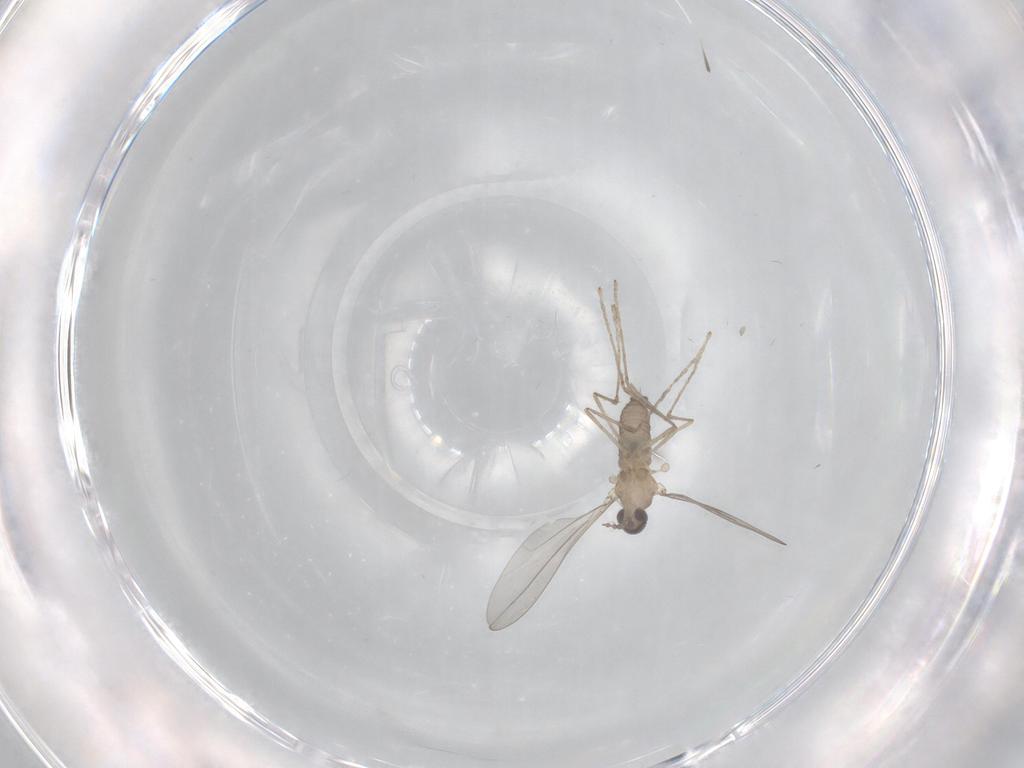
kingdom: Animalia
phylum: Arthropoda
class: Insecta
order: Diptera
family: Cecidomyiidae
